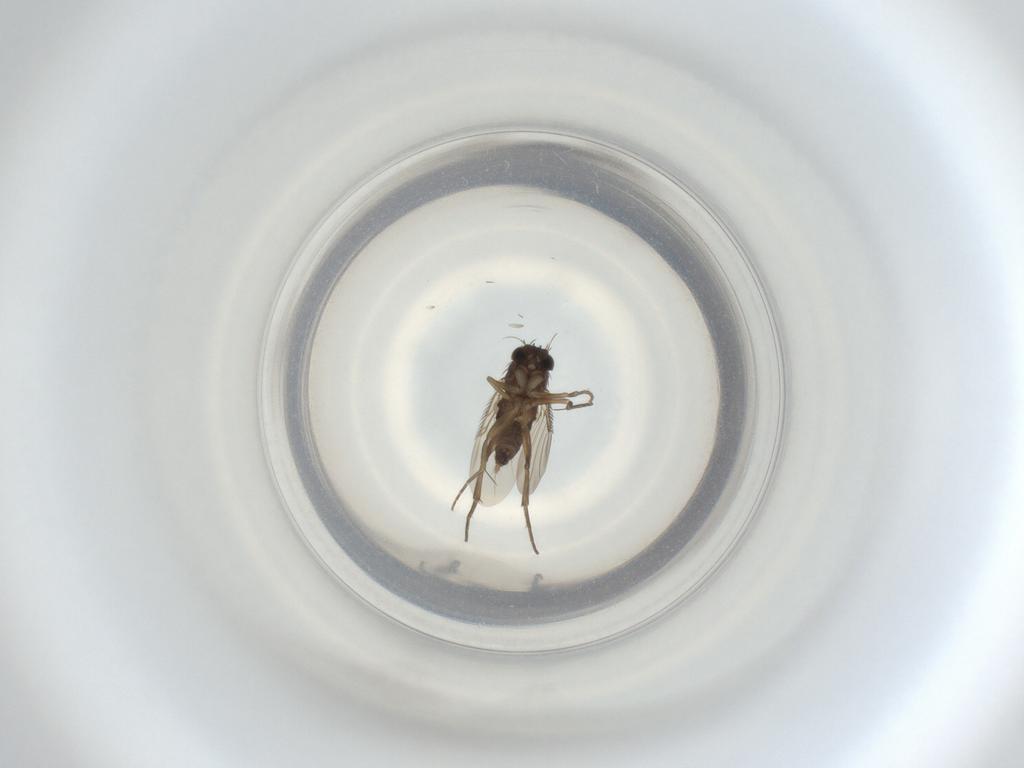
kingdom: Animalia
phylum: Arthropoda
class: Insecta
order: Diptera
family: Phoridae
